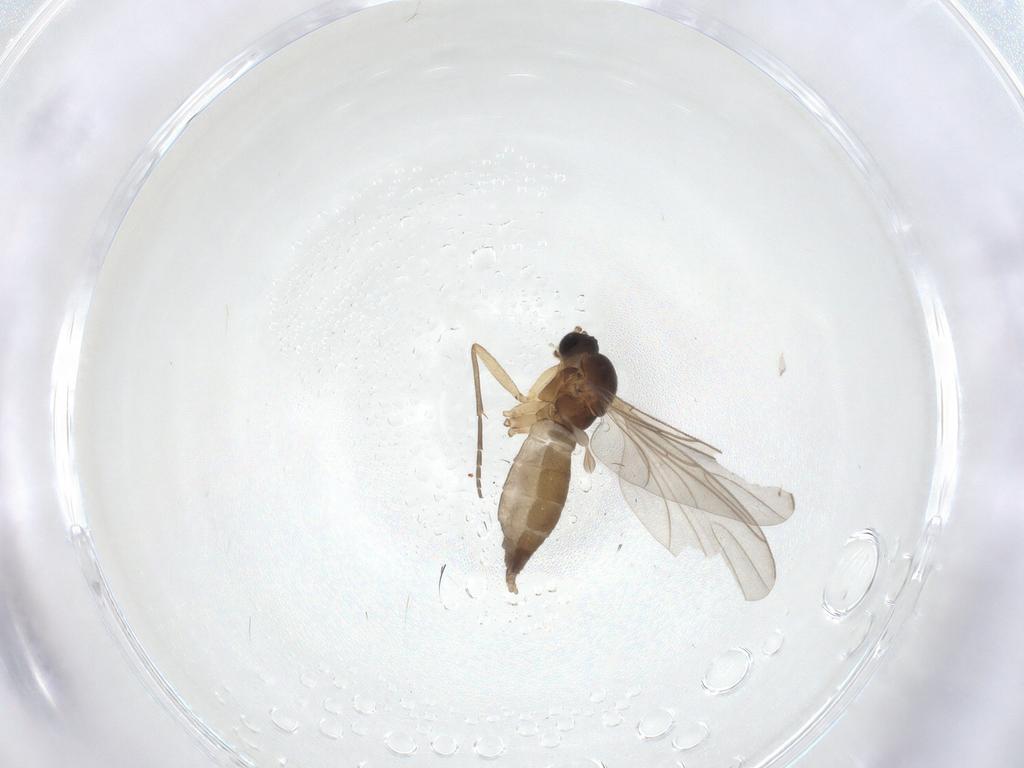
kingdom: Animalia
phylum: Arthropoda
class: Insecta
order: Diptera
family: Sciaridae
